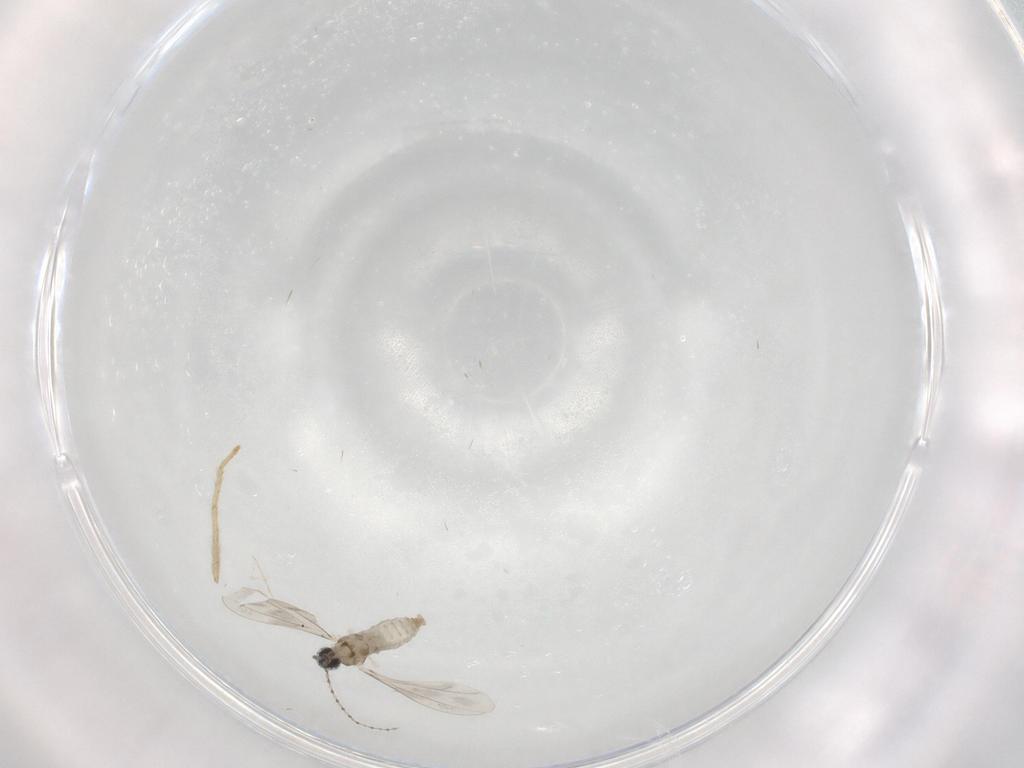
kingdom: Animalia
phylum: Arthropoda
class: Insecta
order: Diptera
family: Cecidomyiidae
